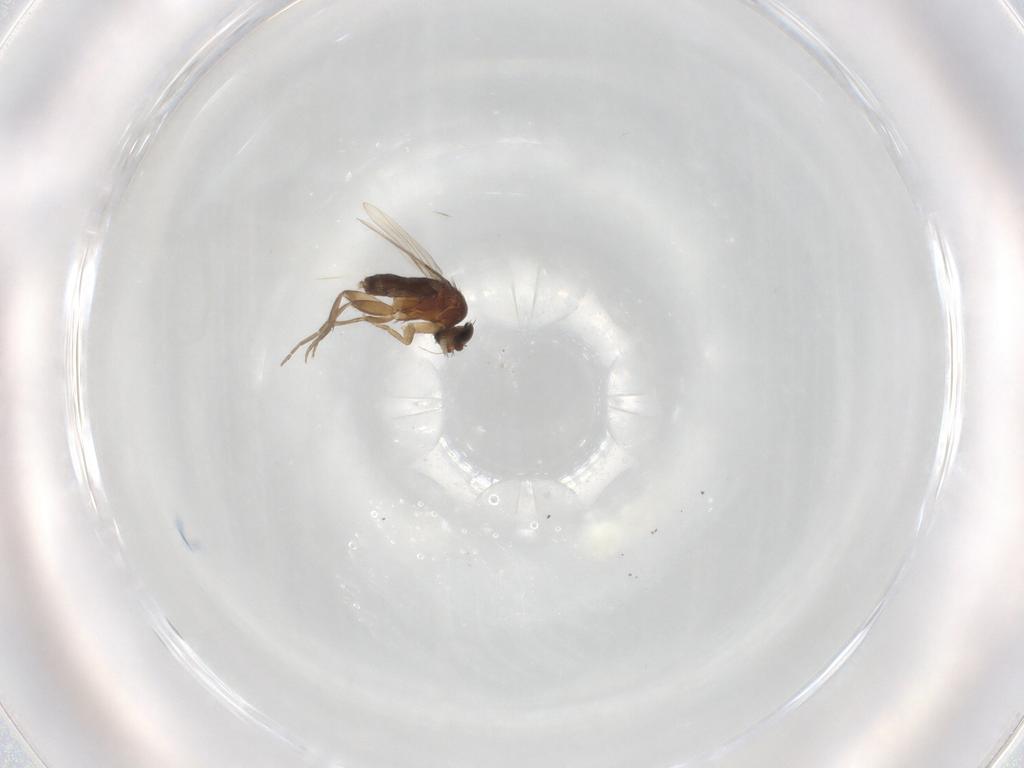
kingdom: Animalia
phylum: Arthropoda
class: Insecta
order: Diptera
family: Phoridae
